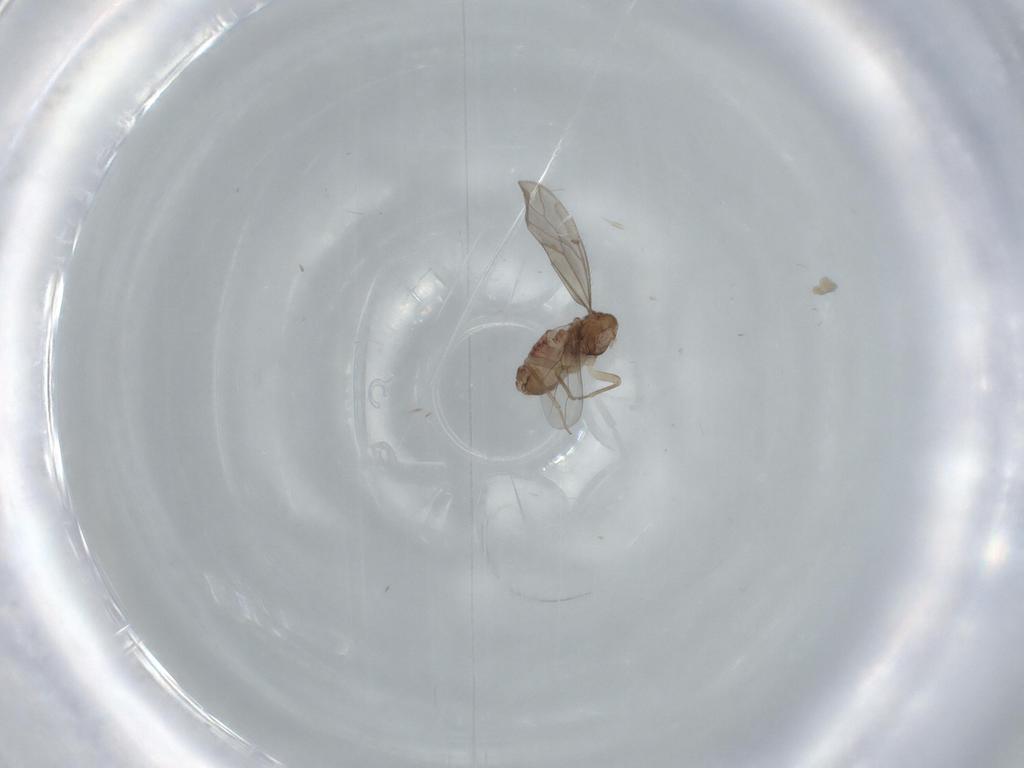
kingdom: Animalia
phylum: Arthropoda
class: Insecta
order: Psocodea
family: Ectopsocidae
